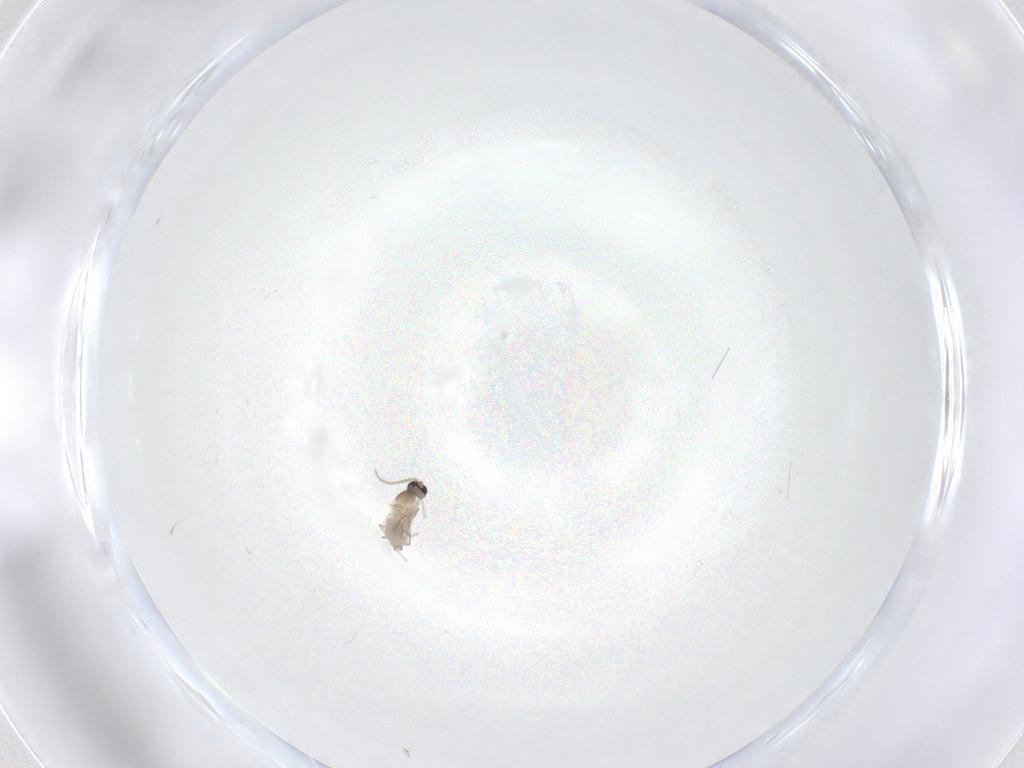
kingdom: Animalia
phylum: Arthropoda
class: Insecta
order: Diptera
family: Cecidomyiidae
